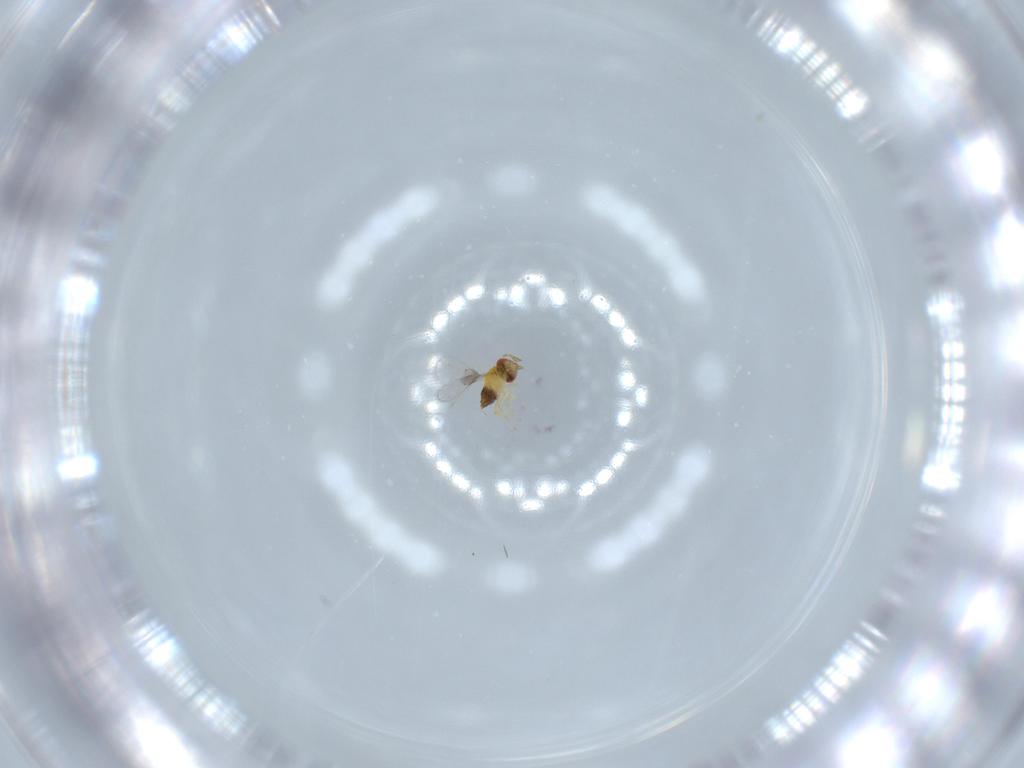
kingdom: Animalia
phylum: Arthropoda
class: Insecta
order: Hymenoptera
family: Trichogrammatidae
